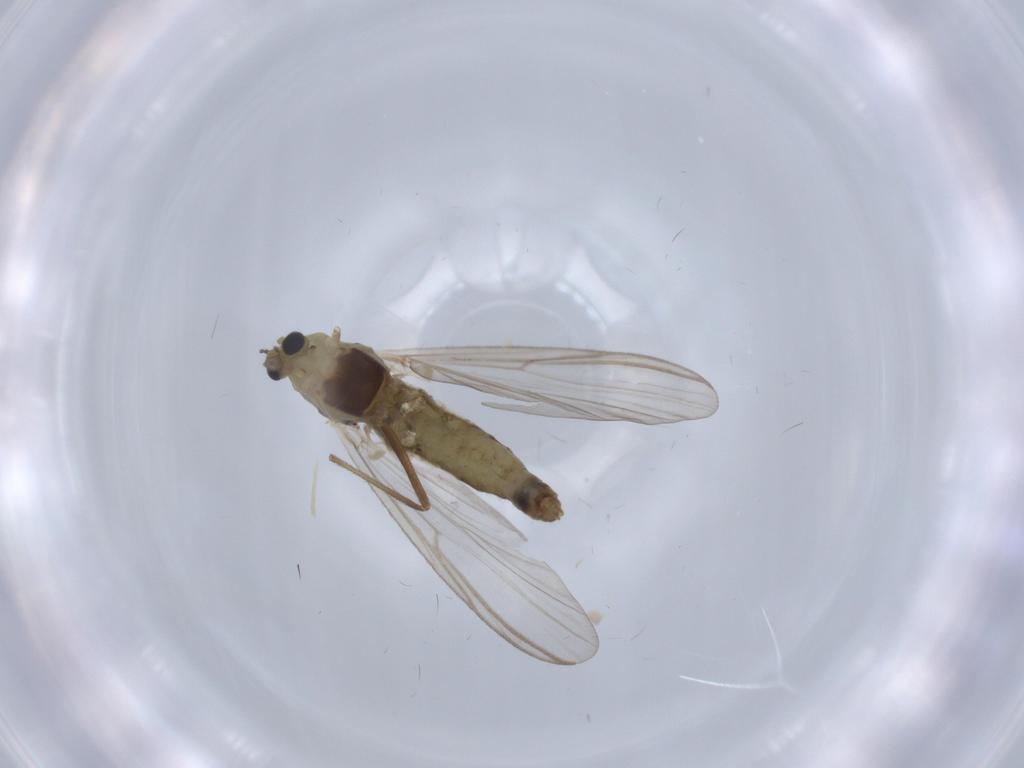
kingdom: Animalia
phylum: Arthropoda
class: Insecta
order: Diptera
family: Chironomidae
